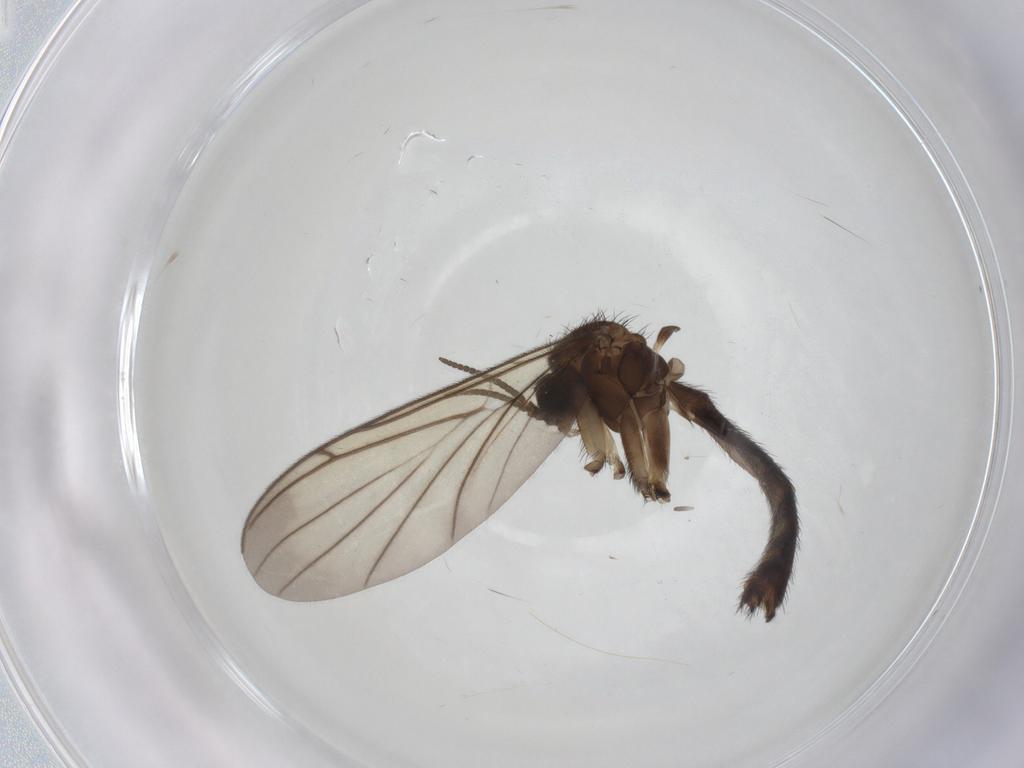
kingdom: Animalia
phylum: Arthropoda
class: Insecta
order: Diptera
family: Keroplatidae
